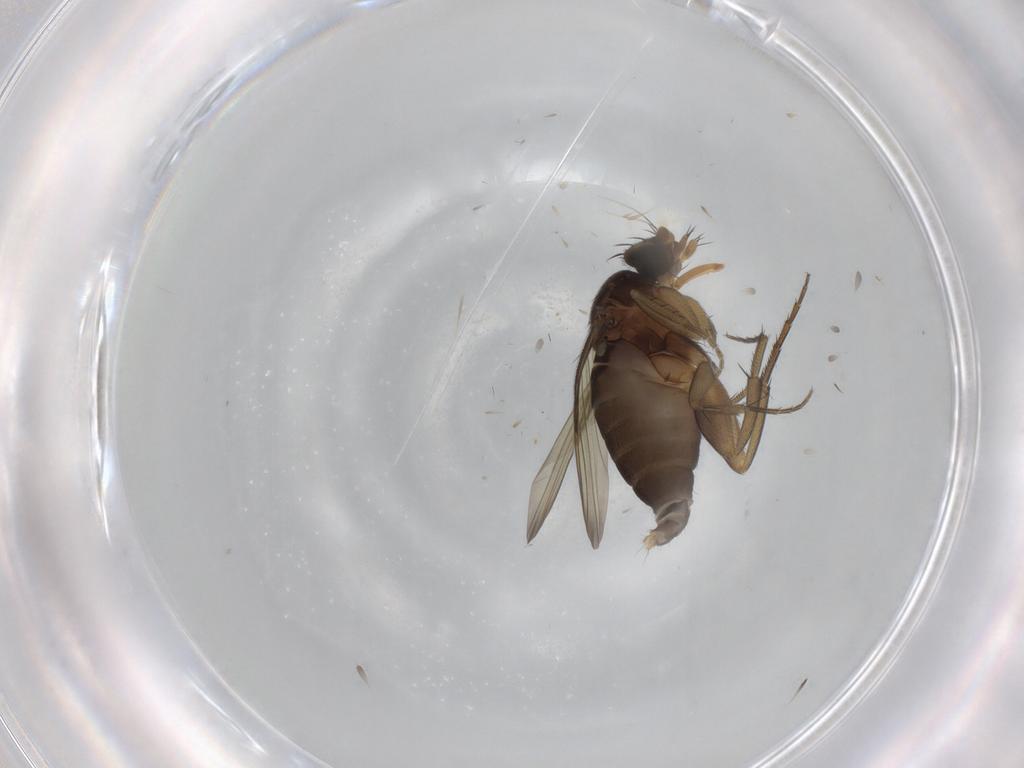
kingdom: Animalia
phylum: Arthropoda
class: Insecta
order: Diptera
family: Phoridae
